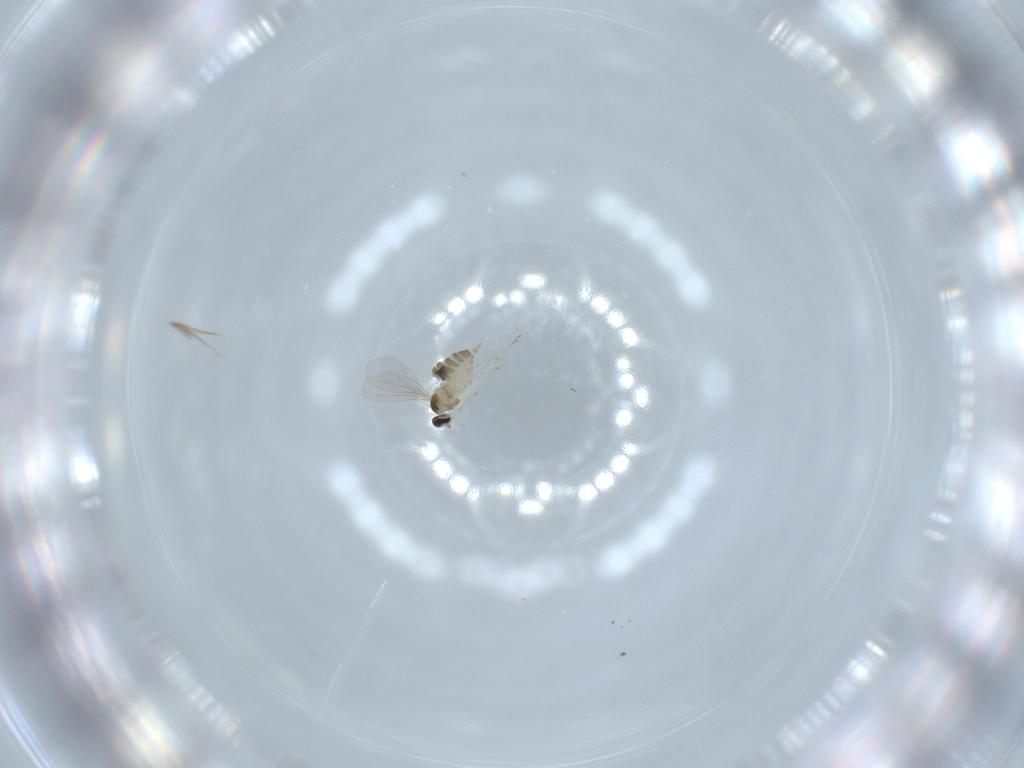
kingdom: Animalia
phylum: Arthropoda
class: Insecta
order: Diptera
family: Cecidomyiidae
